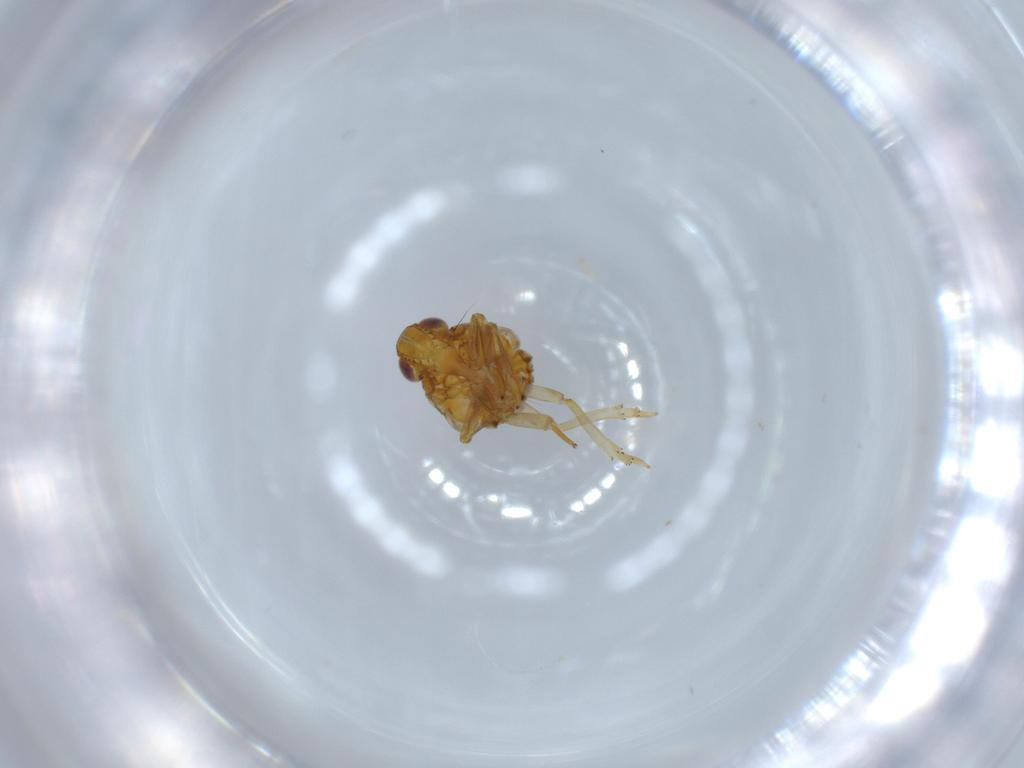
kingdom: Animalia
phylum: Arthropoda
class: Insecta
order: Hemiptera
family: Issidae
